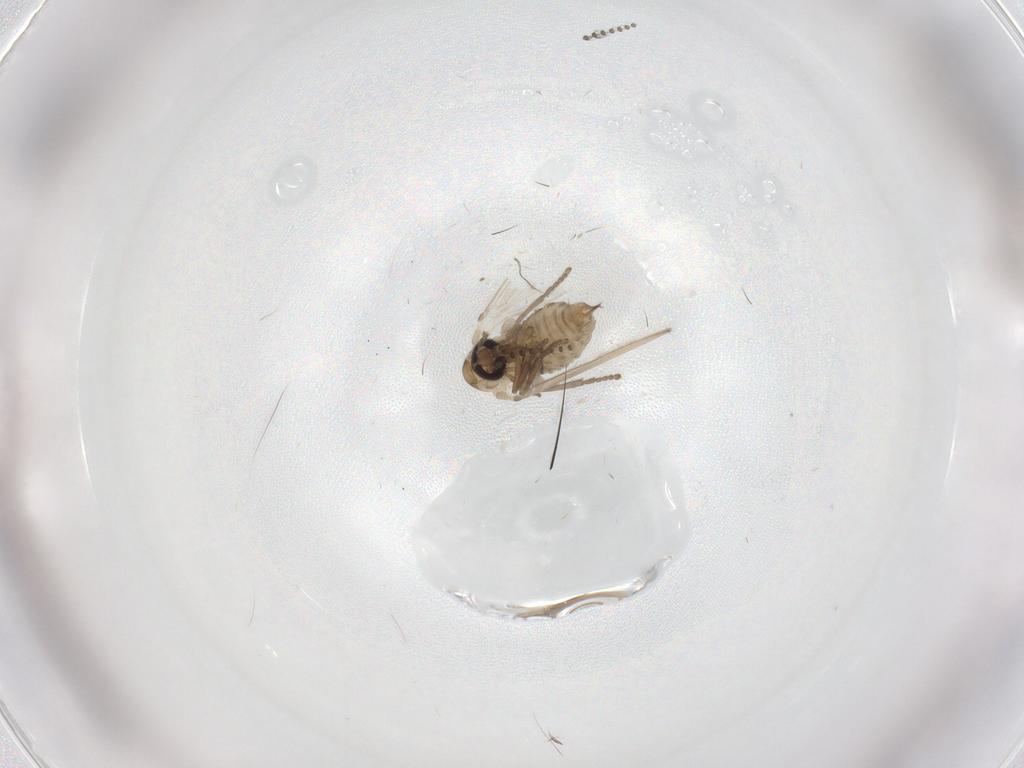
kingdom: Animalia
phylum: Arthropoda
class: Insecta
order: Diptera
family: Psychodidae
